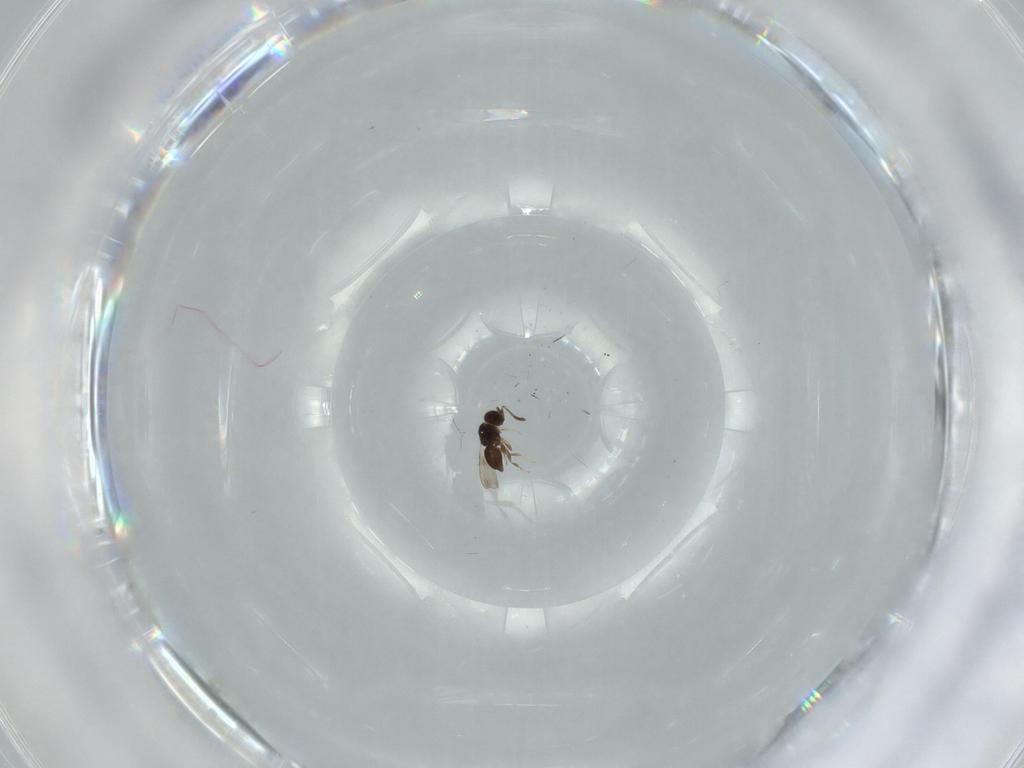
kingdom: Animalia
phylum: Arthropoda
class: Insecta
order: Hymenoptera
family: Ceraphronidae
